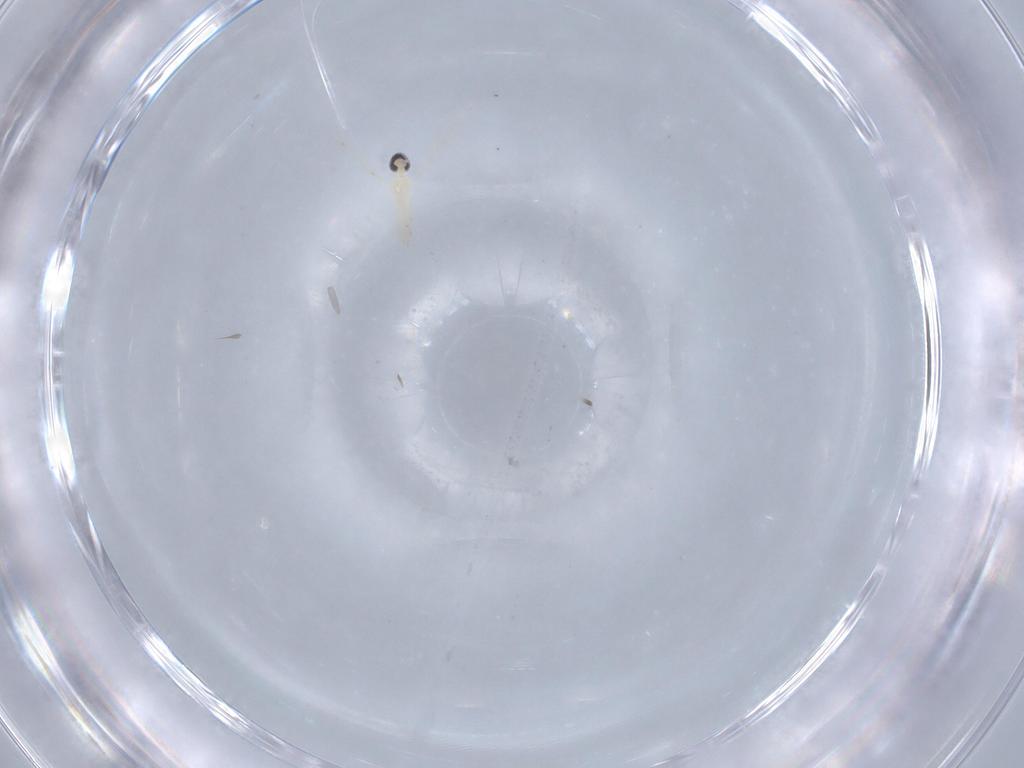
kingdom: Animalia
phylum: Arthropoda
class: Insecta
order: Diptera
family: Cecidomyiidae
